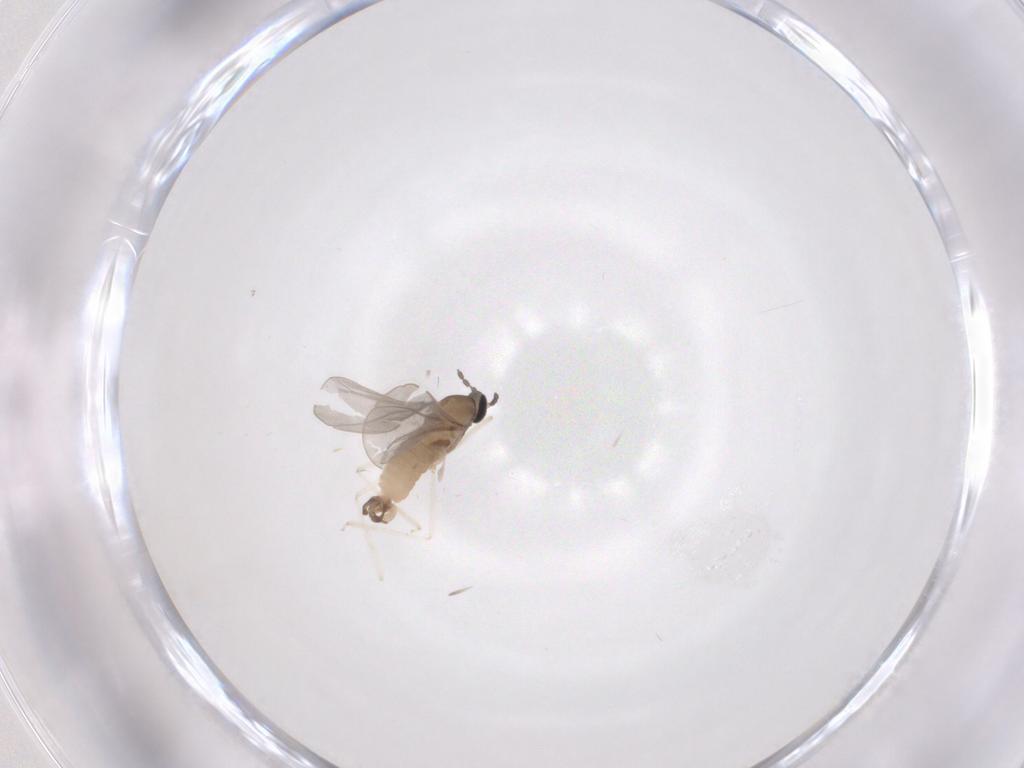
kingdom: Animalia
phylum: Arthropoda
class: Insecta
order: Diptera
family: Cecidomyiidae
